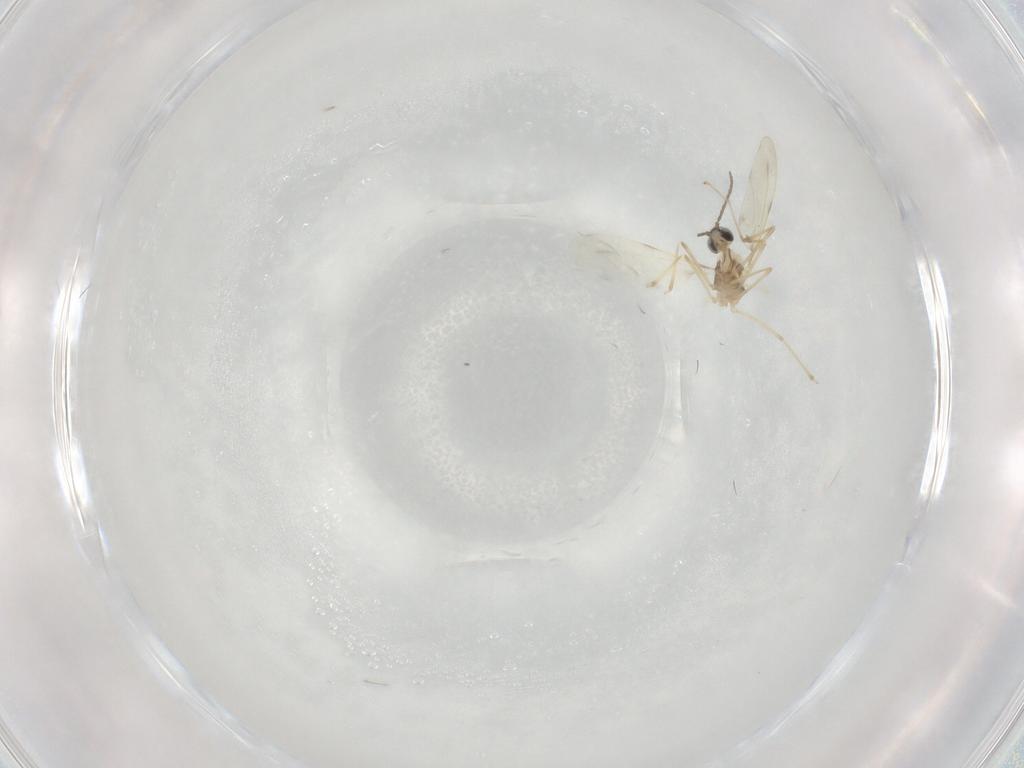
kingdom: Animalia
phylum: Arthropoda
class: Insecta
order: Diptera
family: Cecidomyiidae
